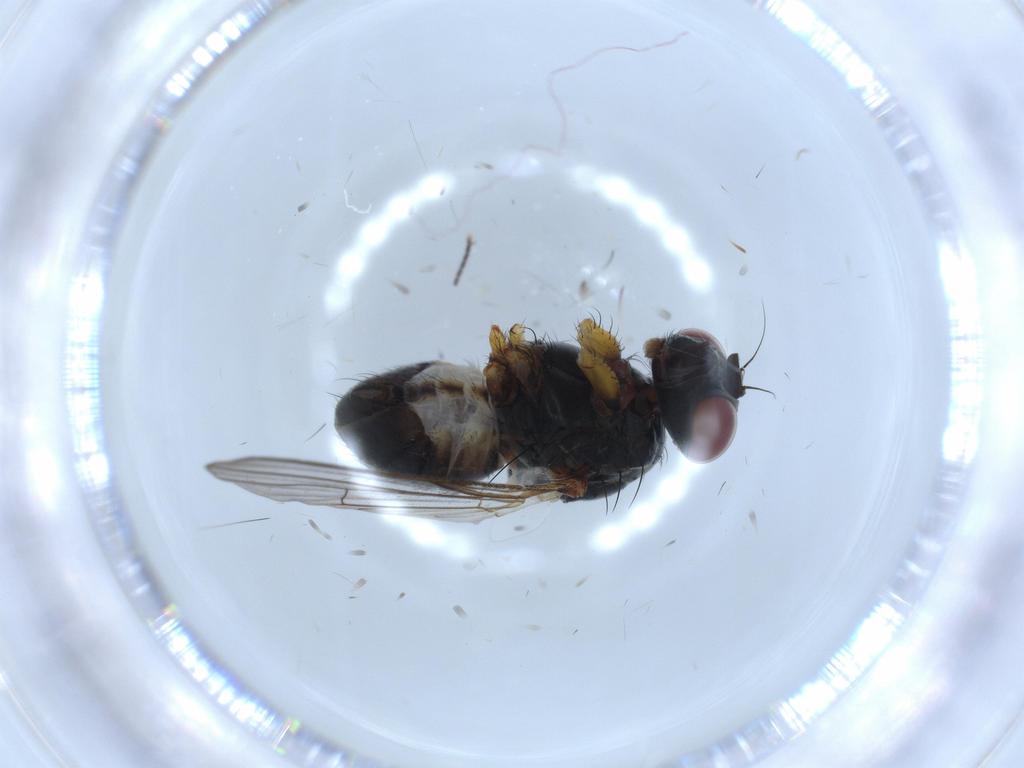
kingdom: Animalia
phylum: Arthropoda
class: Insecta
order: Diptera
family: Muscidae
